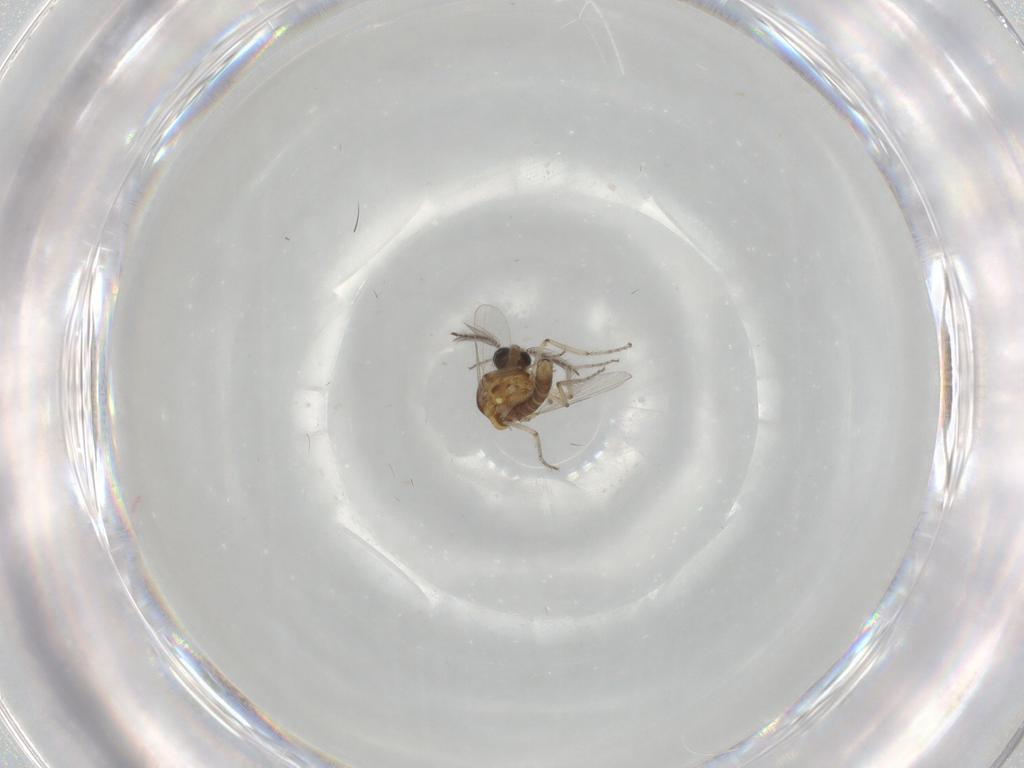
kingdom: Animalia
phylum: Arthropoda
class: Insecta
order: Diptera
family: Ceratopogonidae
